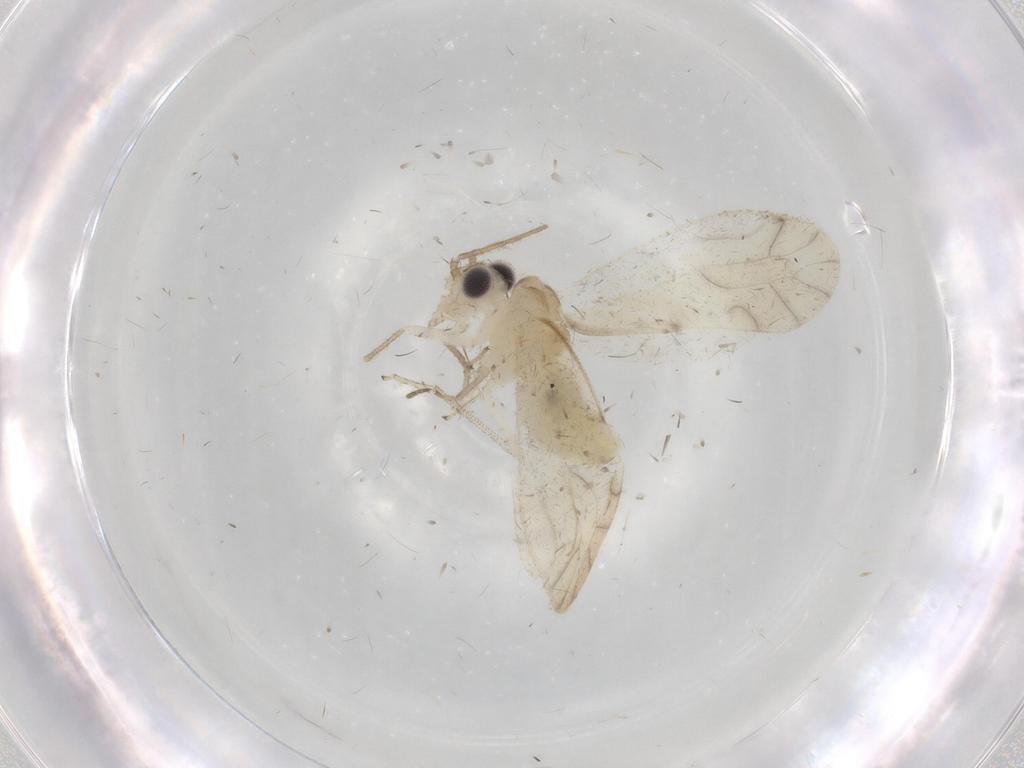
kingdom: Animalia
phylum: Arthropoda
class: Insecta
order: Psocodea
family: Caeciliusidae
